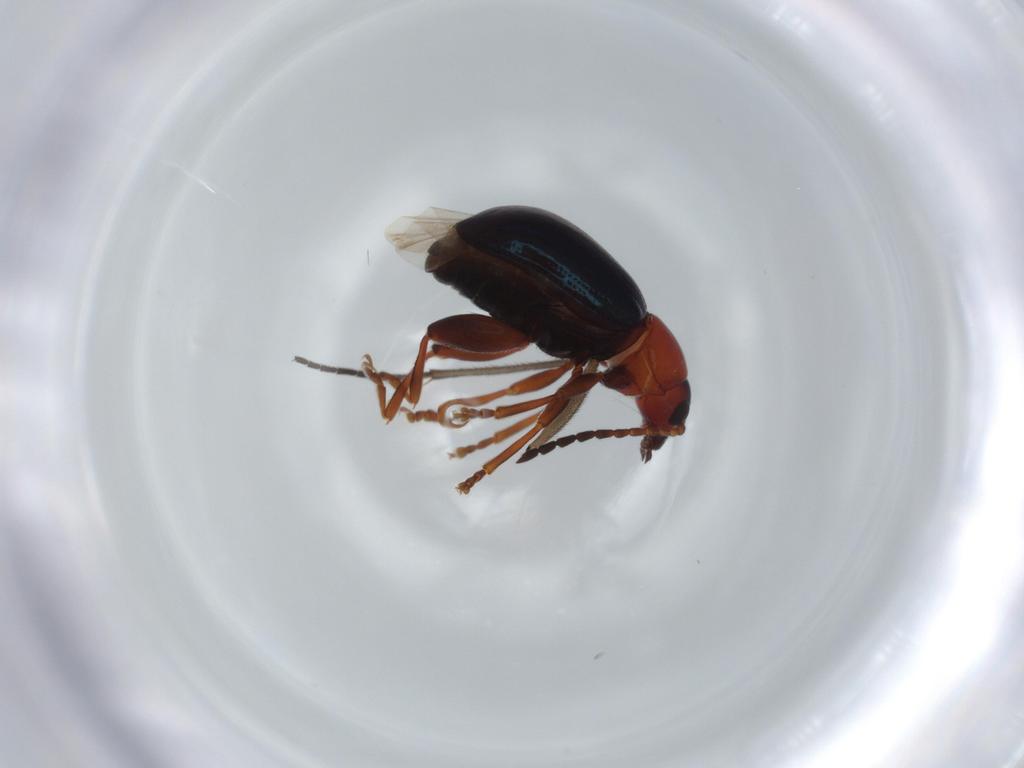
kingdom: Animalia
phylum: Arthropoda
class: Insecta
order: Coleoptera
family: Chrysomelidae
